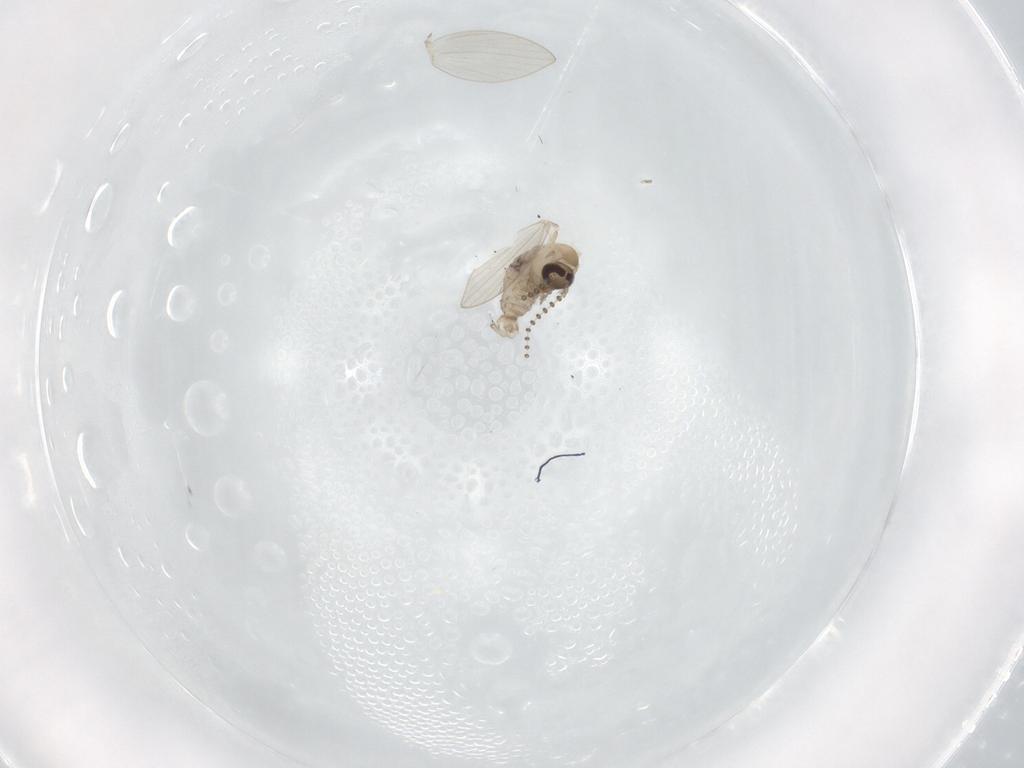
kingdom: Animalia
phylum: Arthropoda
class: Insecta
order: Diptera
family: Psychodidae
